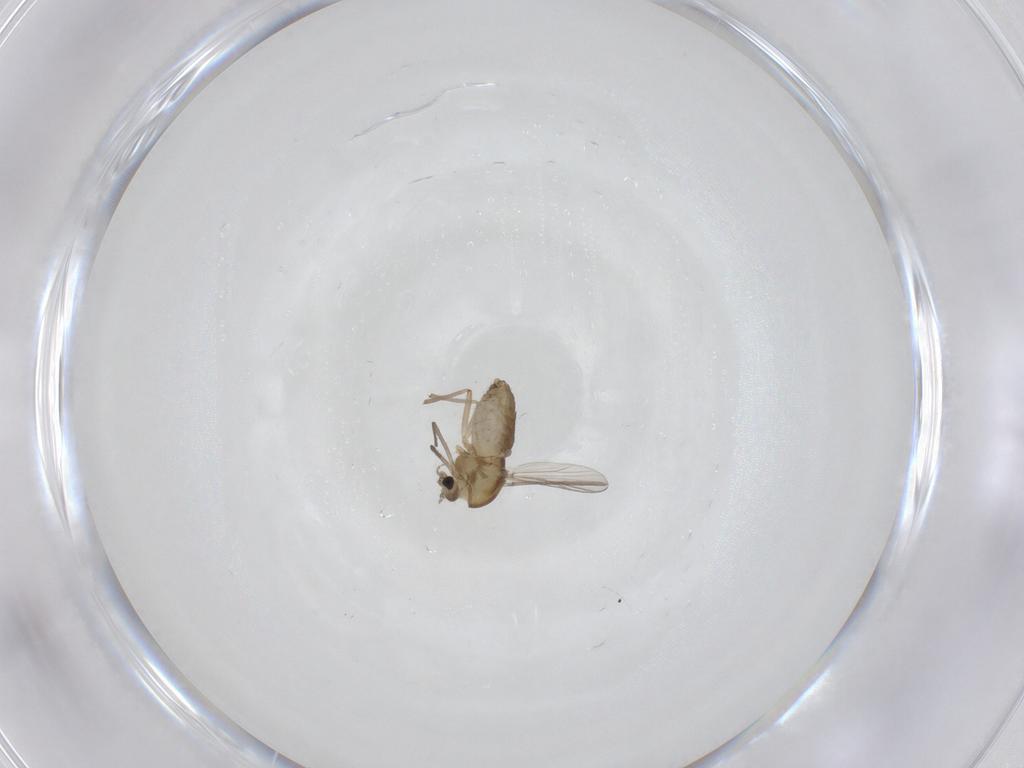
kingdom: Animalia
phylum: Arthropoda
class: Insecta
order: Diptera
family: Chironomidae
